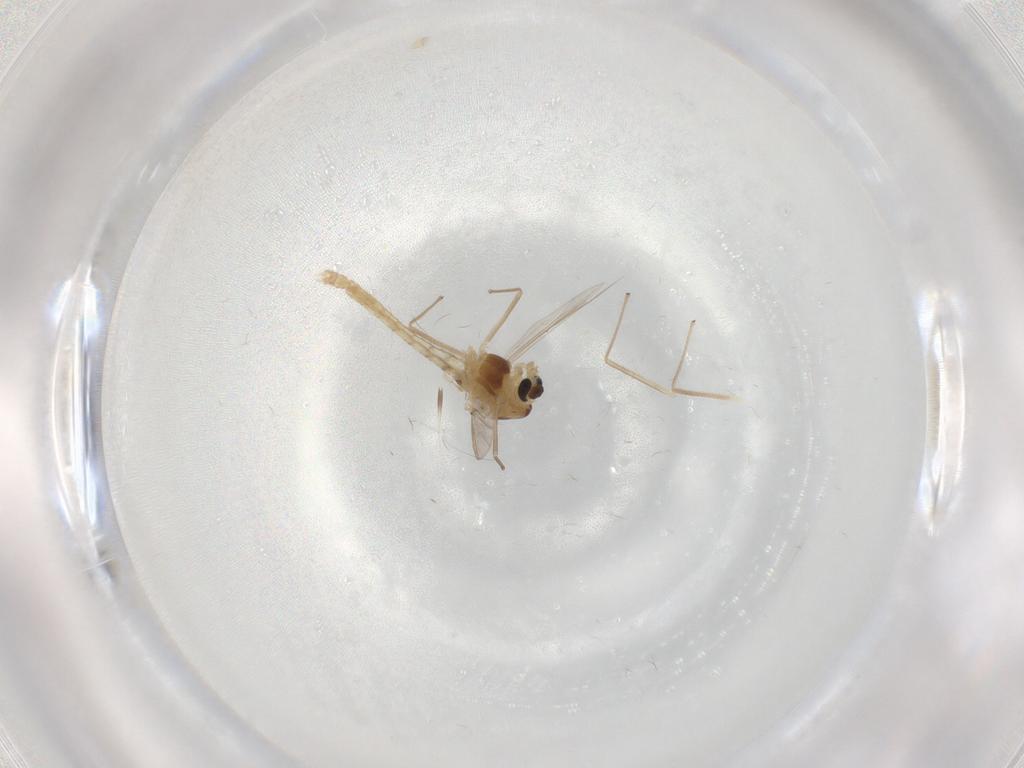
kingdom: Animalia
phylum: Arthropoda
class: Insecta
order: Diptera
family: Chironomidae
